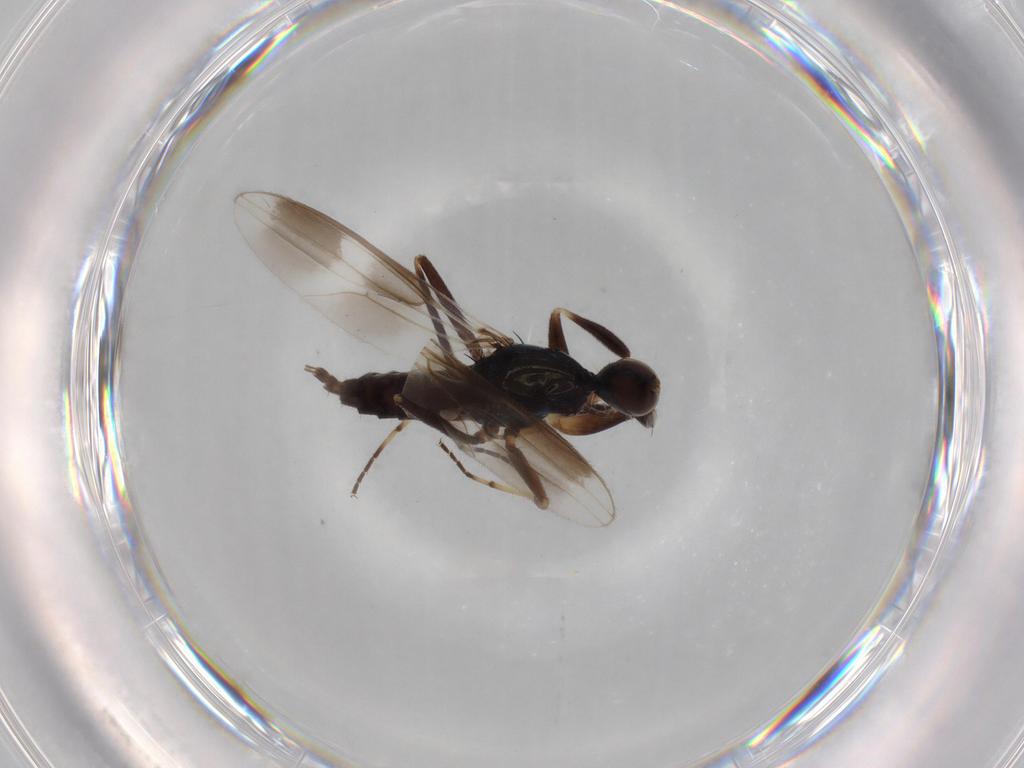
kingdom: Animalia
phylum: Arthropoda
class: Insecta
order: Diptera
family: Hybotidae
